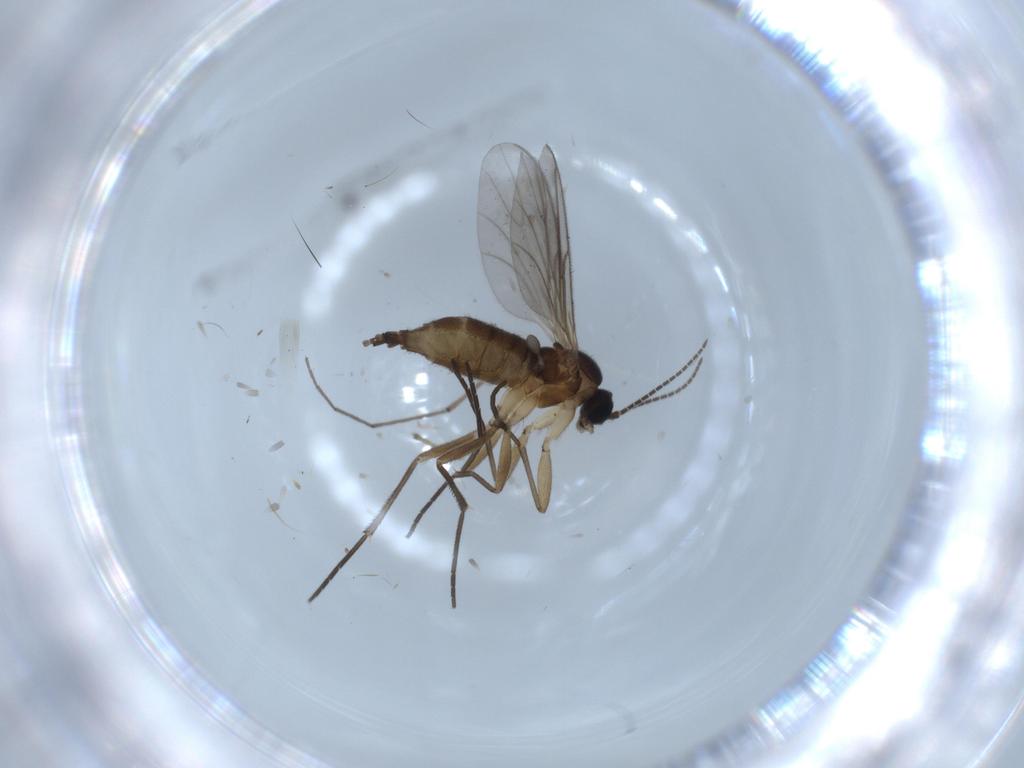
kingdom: Animalia
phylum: Arthropoda
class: Insecta
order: Diptera
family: Sciaridae
